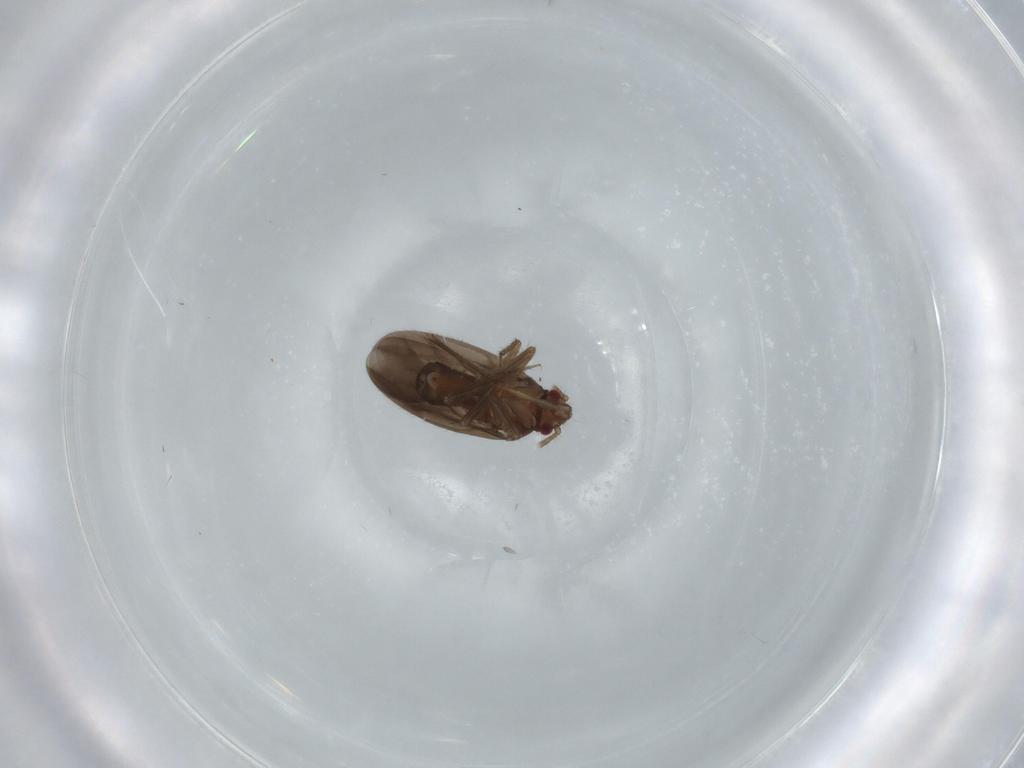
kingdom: Animalia
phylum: Arthropoda
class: Insecta
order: Hemiptera
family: Ceratocombidae
